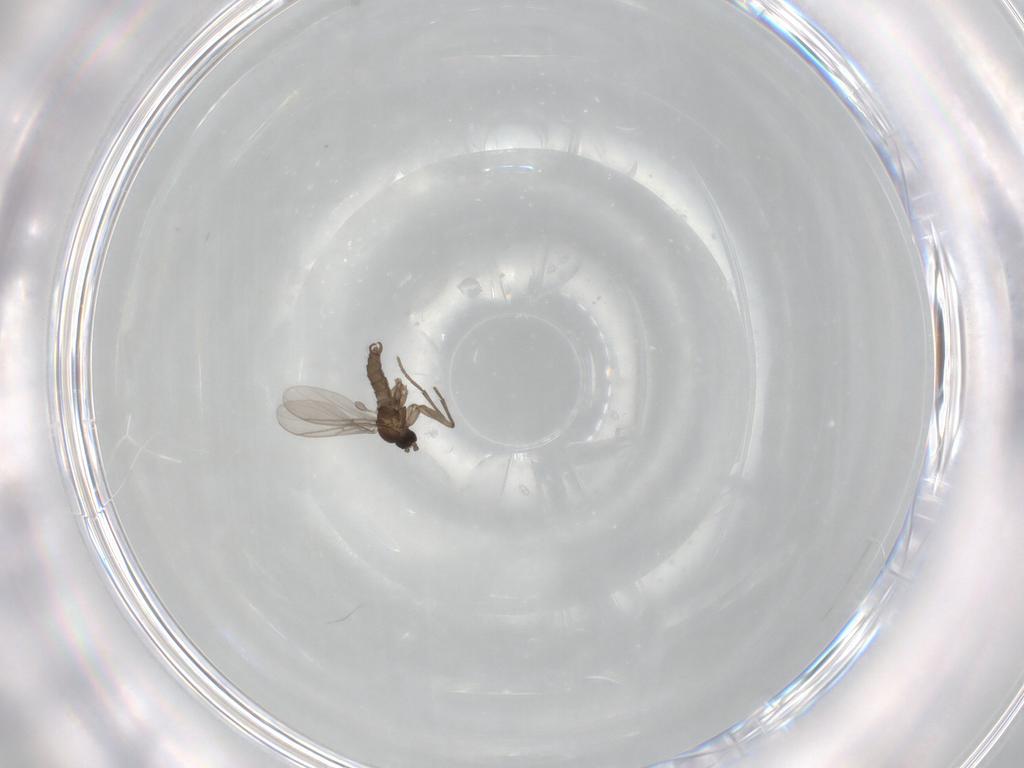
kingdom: Animalia
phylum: Arthropoda
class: Insecta
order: Diptera
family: Sciaridae
